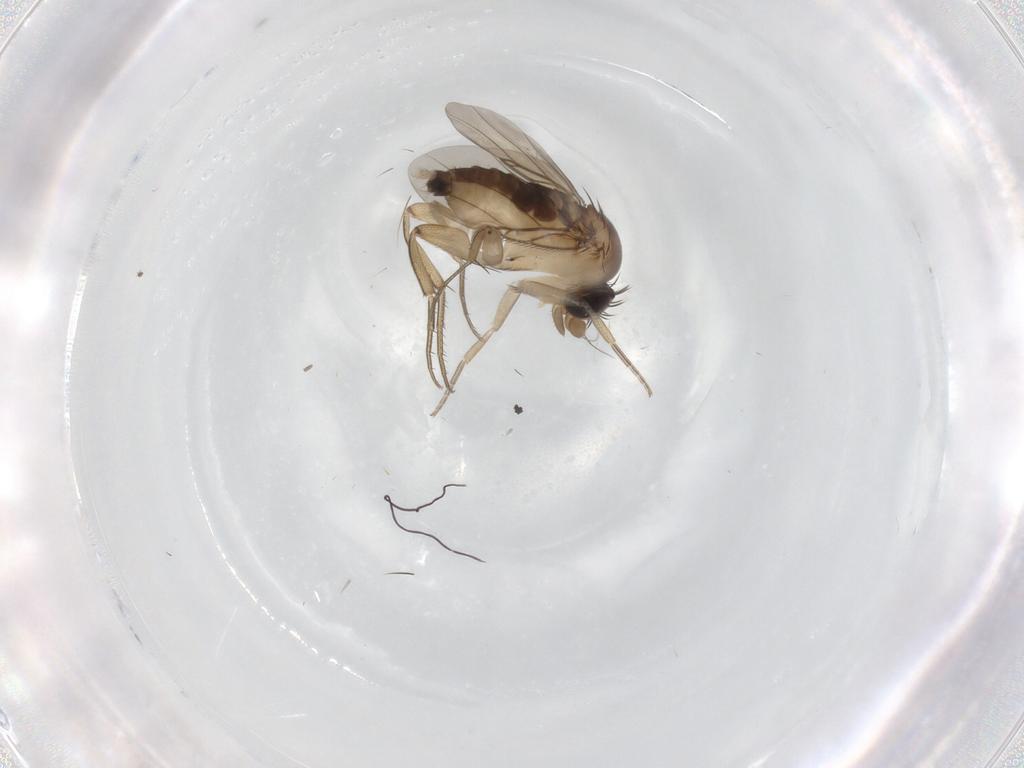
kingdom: Animalia
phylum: Arthropoda
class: Insecta
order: Diptera
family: Phoridae
